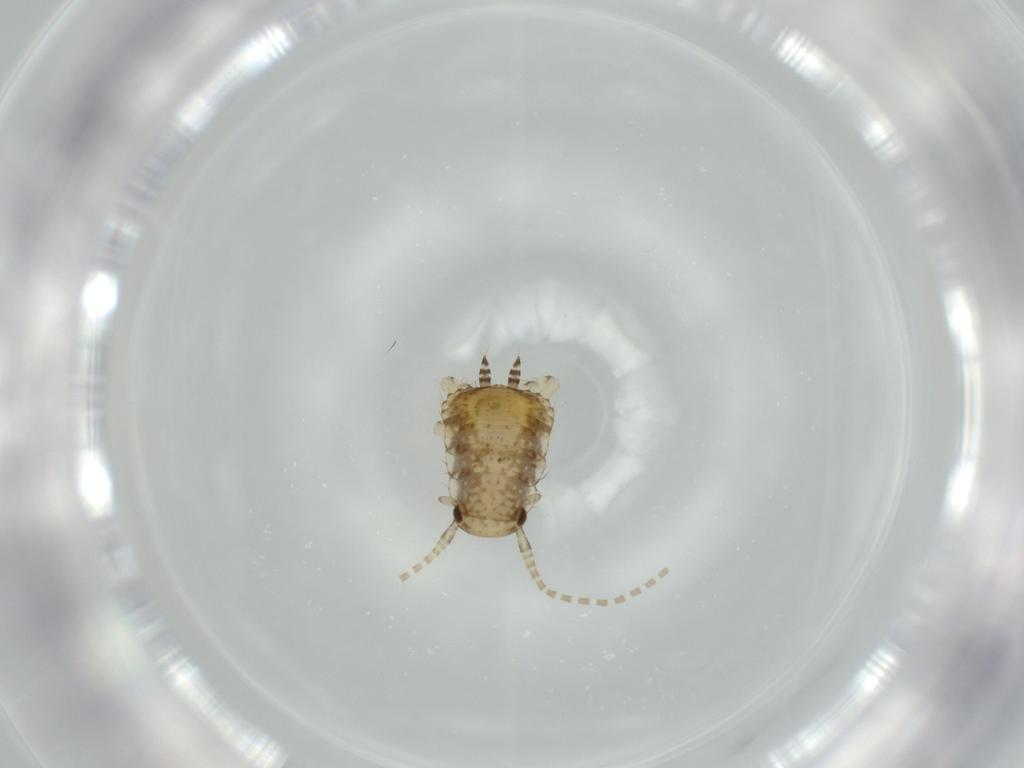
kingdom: Animalia
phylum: Arthropoda
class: Insecta
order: Blattodea
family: Ectobiidae
